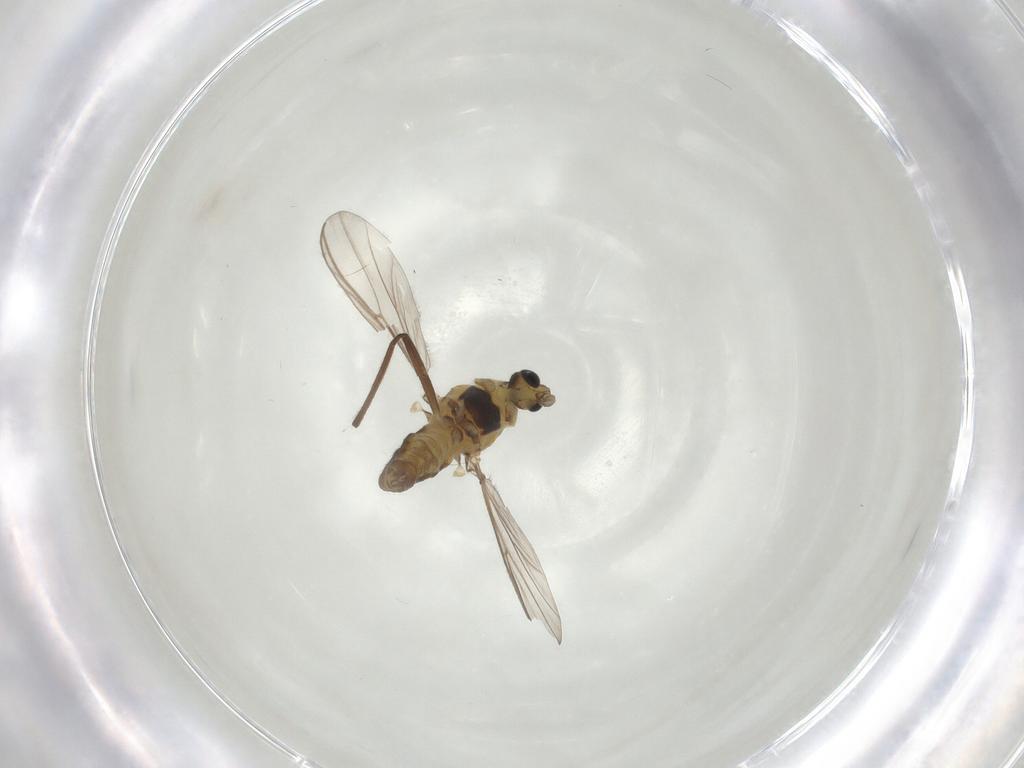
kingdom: Animalia
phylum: Arthropoda
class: Insecta
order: Diptera
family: Chironomidae
